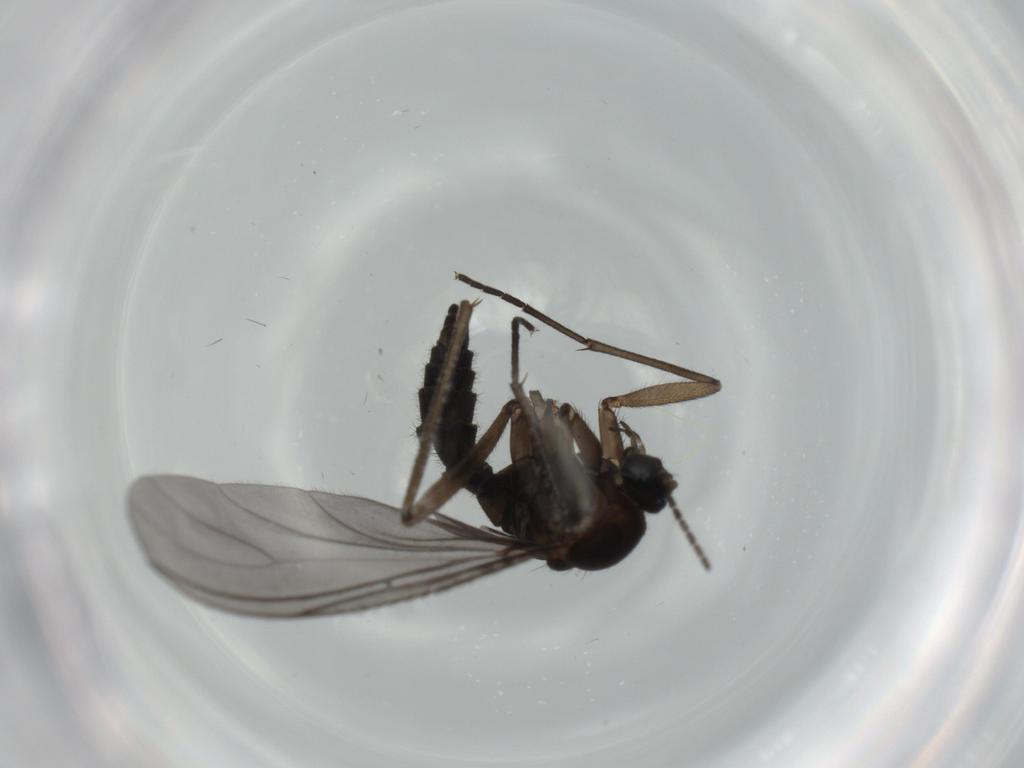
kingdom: Animalia
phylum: Arthropoda
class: Insecta
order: Diptera
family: Sciaridae
